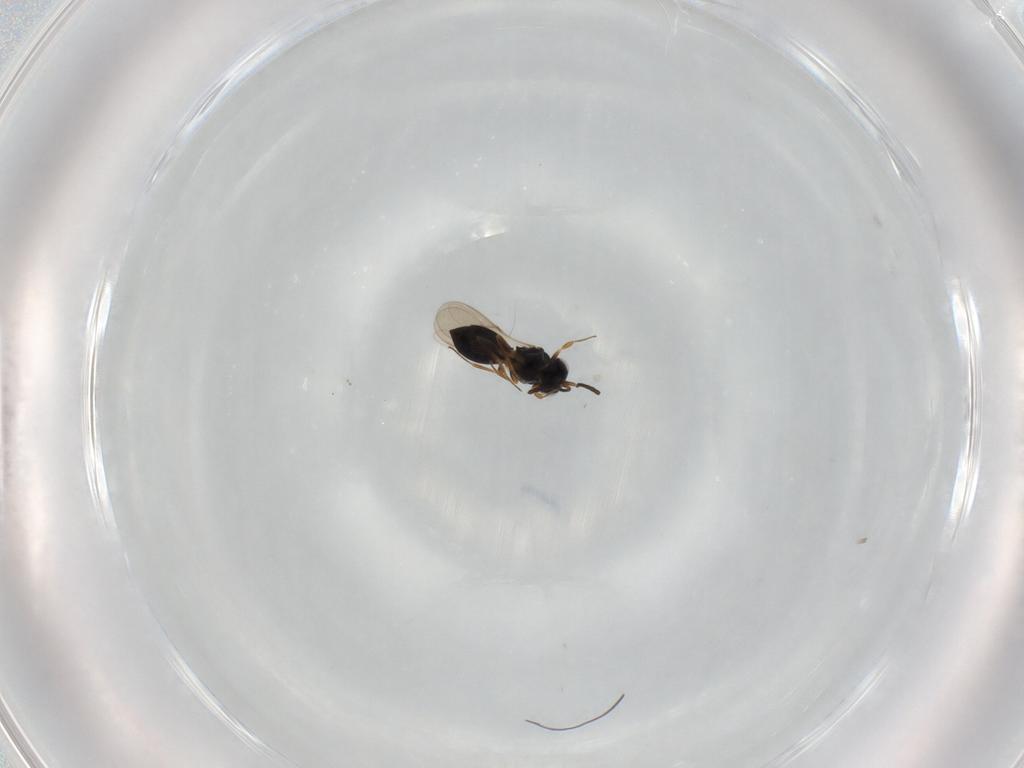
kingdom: Animalia
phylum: Arthropoda
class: Insecta
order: Hymenoptera
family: Scelionidae
